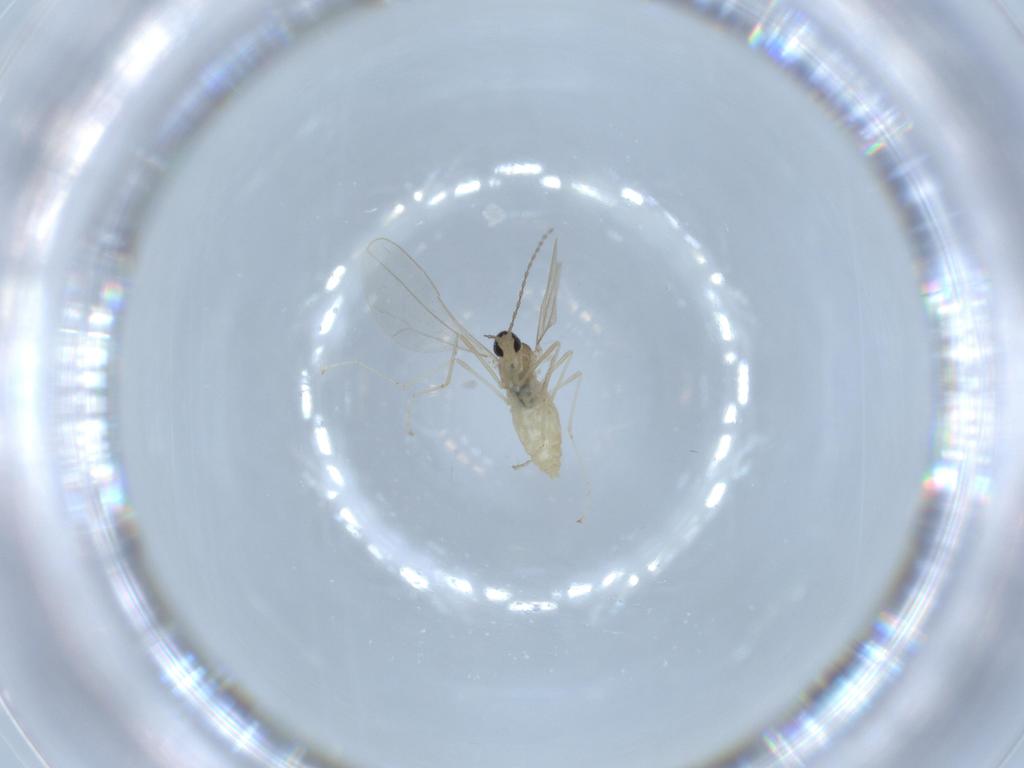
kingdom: Animalia
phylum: Arthropoda
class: Insecta
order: Diptera
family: Cecidomyiidae
